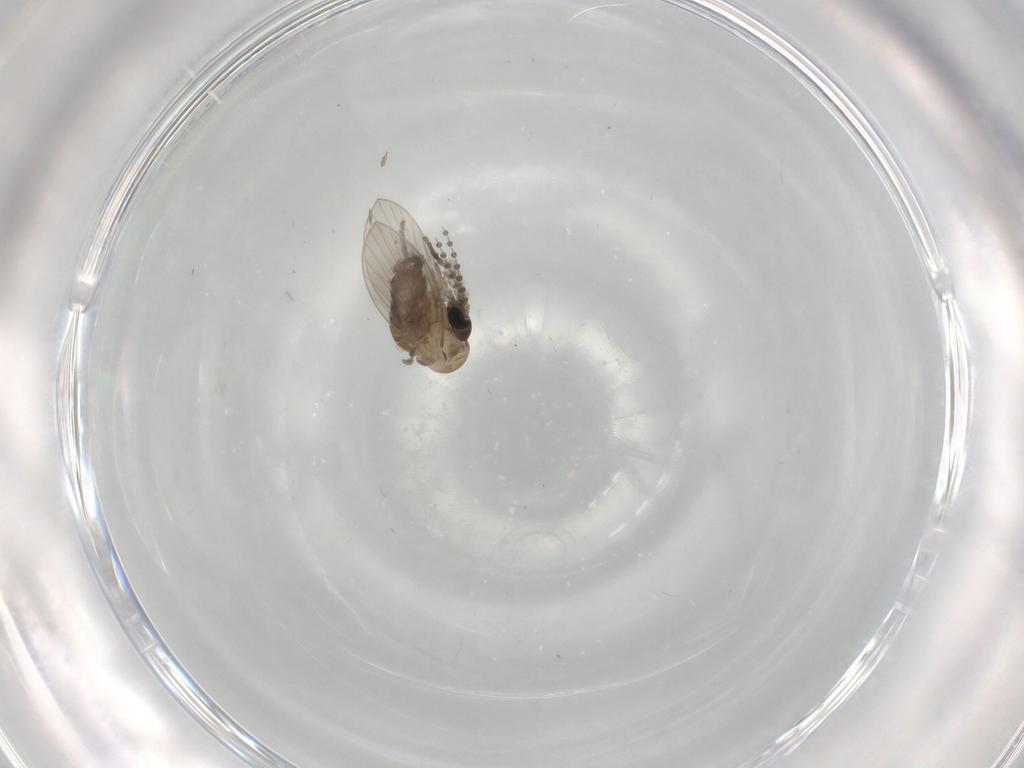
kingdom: Animalia
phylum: Arthropoda
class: Insecta
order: Diptera
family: Psychodidae
